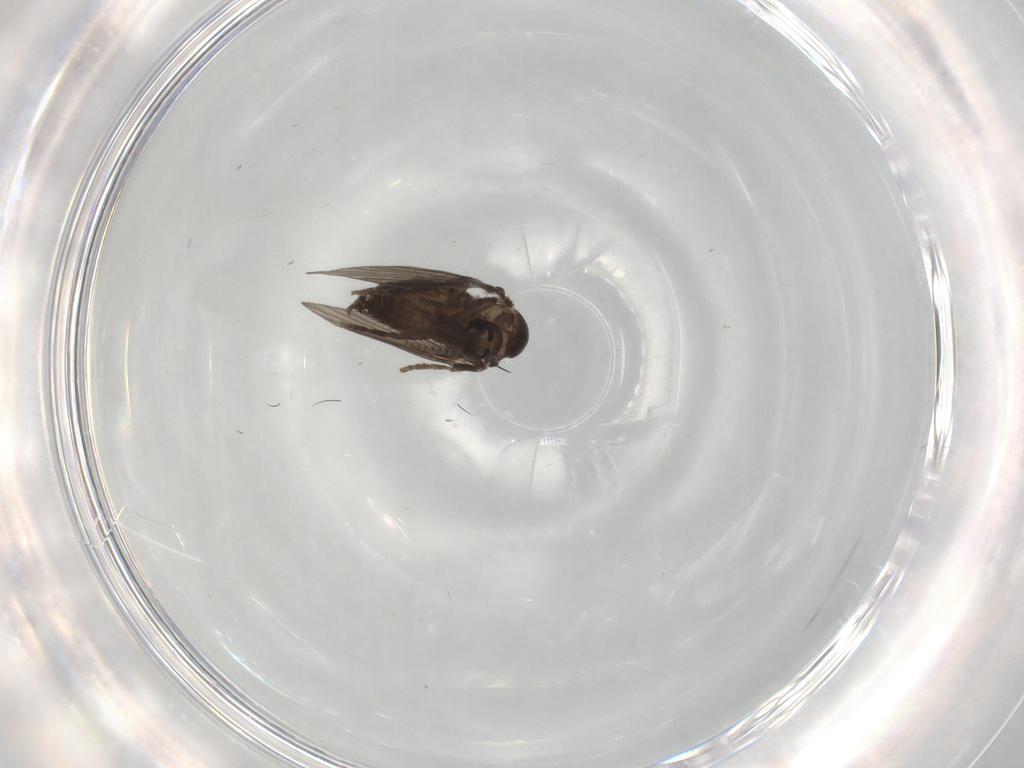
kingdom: Animalia
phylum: Arthropoda
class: Insecta
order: Diptera
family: Psychodidae
